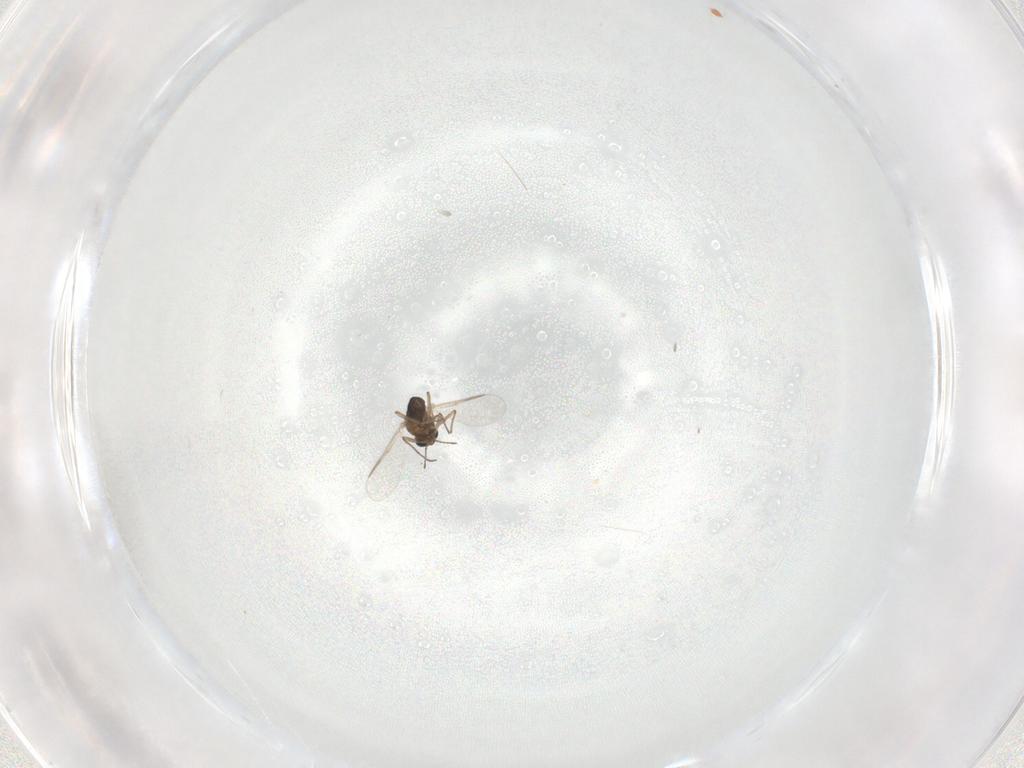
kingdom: Animalia
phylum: Arthropoda
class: Insecta
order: Diptera
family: Chironomidae
